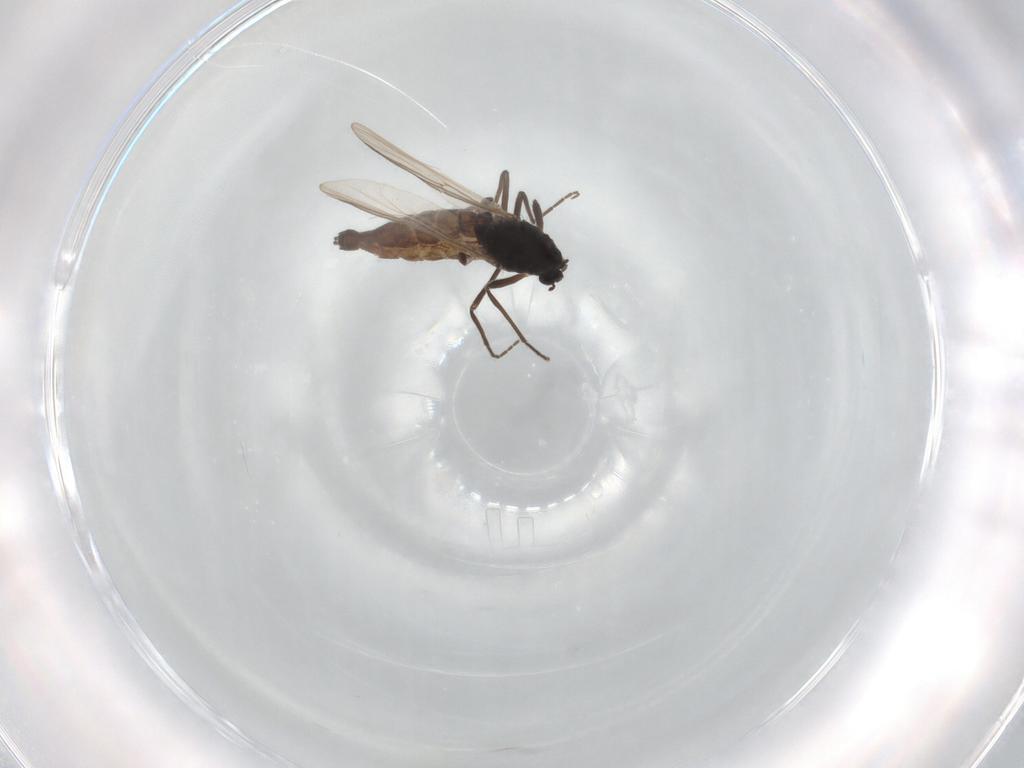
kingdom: Animalia
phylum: Arthropoda
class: Insecta
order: Diptera
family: Chironomidae
